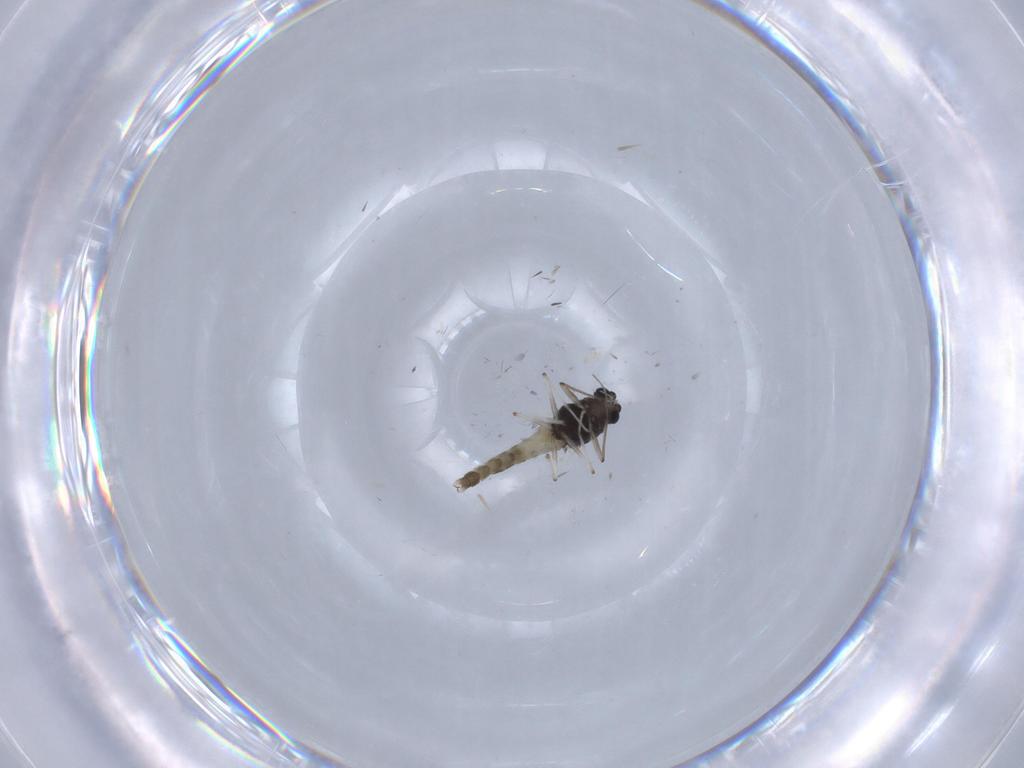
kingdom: Animalia
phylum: Arthropoda
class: Insecta
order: Diptera
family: Chironomidae
